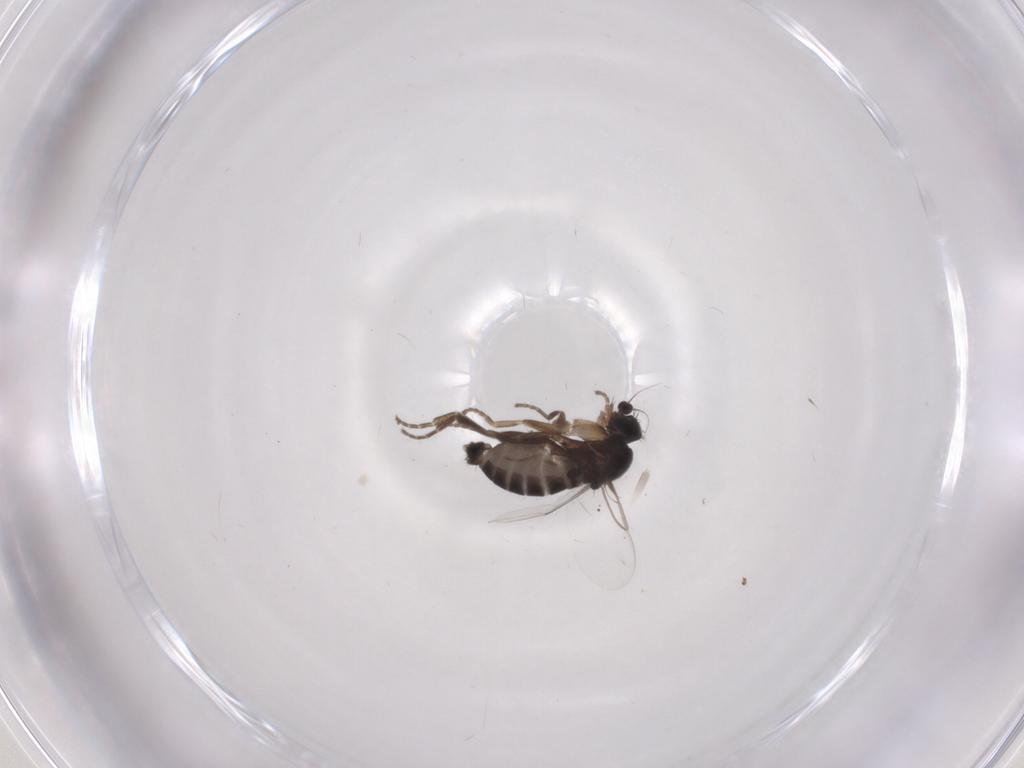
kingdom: Animalia
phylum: Arthropoda
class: Insecta
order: Diptera
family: Phoridae
